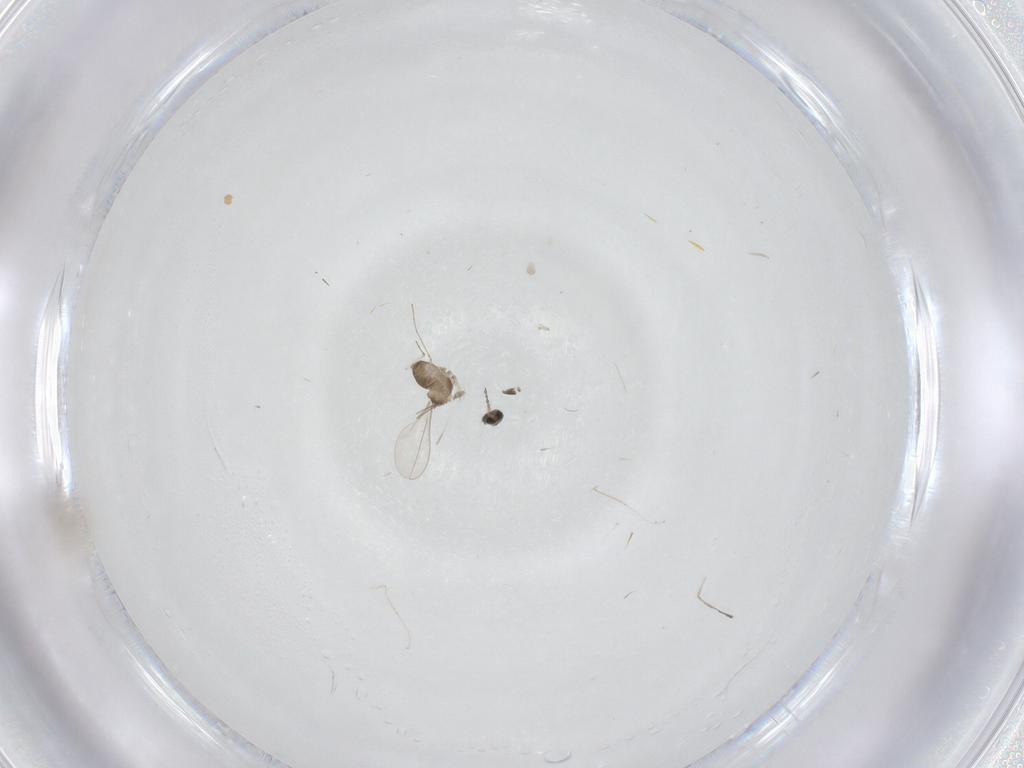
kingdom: Animalia
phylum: Arthropoda
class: Insecta
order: Diptera
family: Cecidomyiidae
